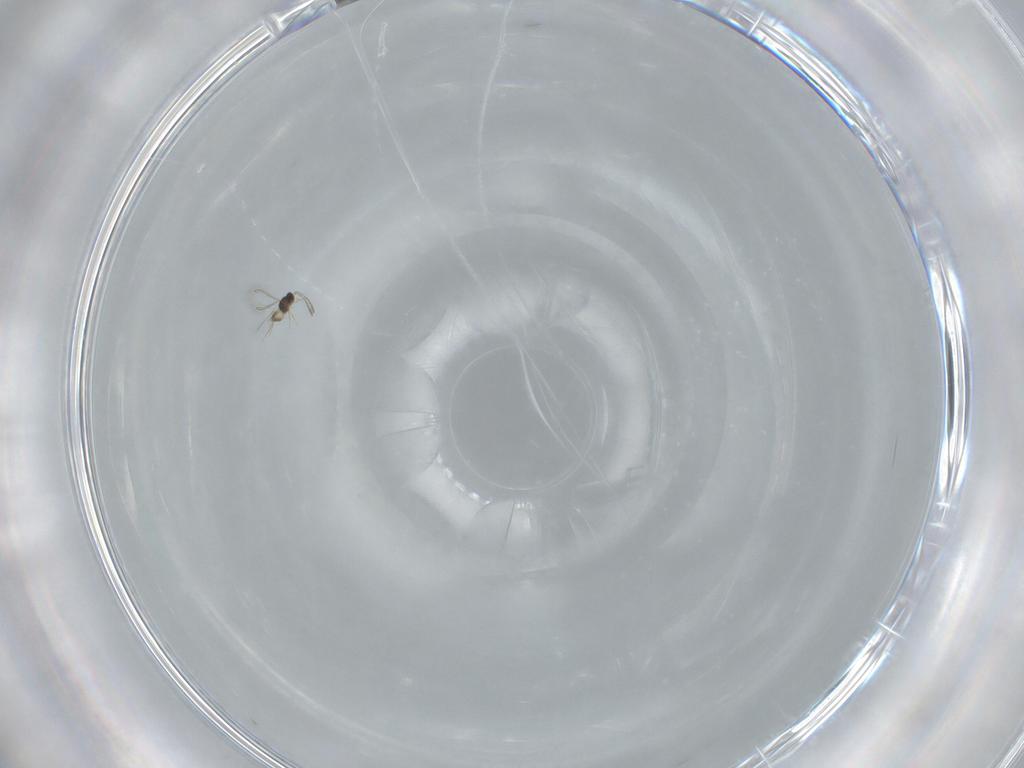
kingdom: Animalia
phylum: Arthropoda
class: Insecta
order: Hymenoptera
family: Mymaridae
